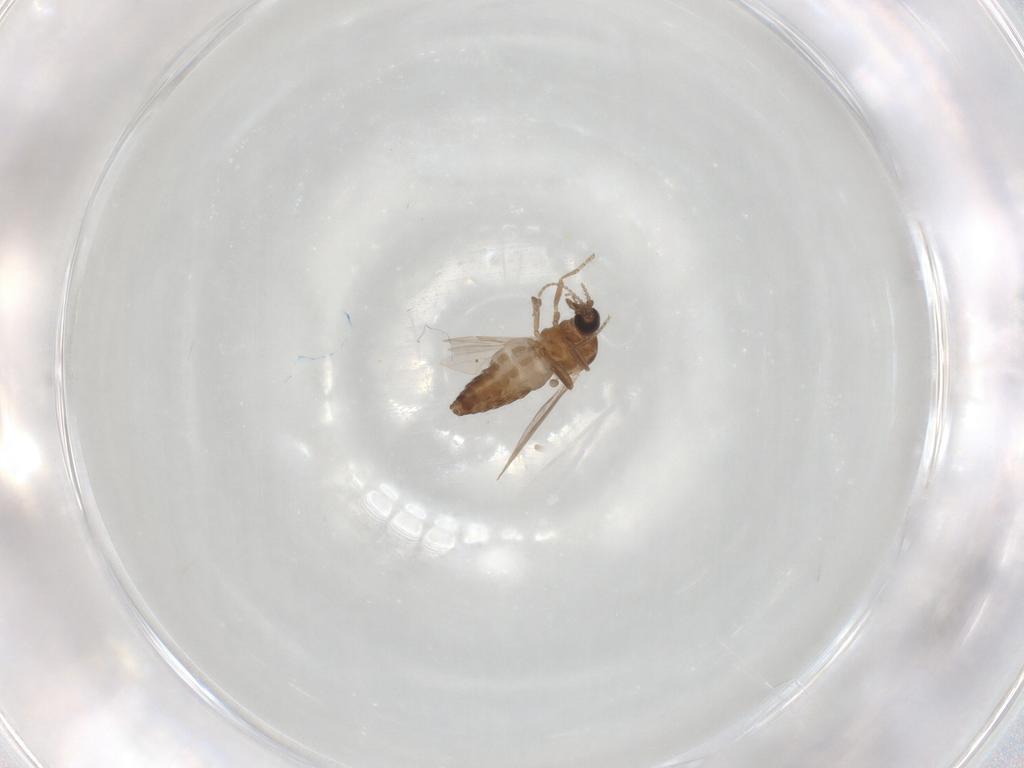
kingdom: Animalia
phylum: Arthropoda
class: Insecta
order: Diptera
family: Ceratopogonidae
